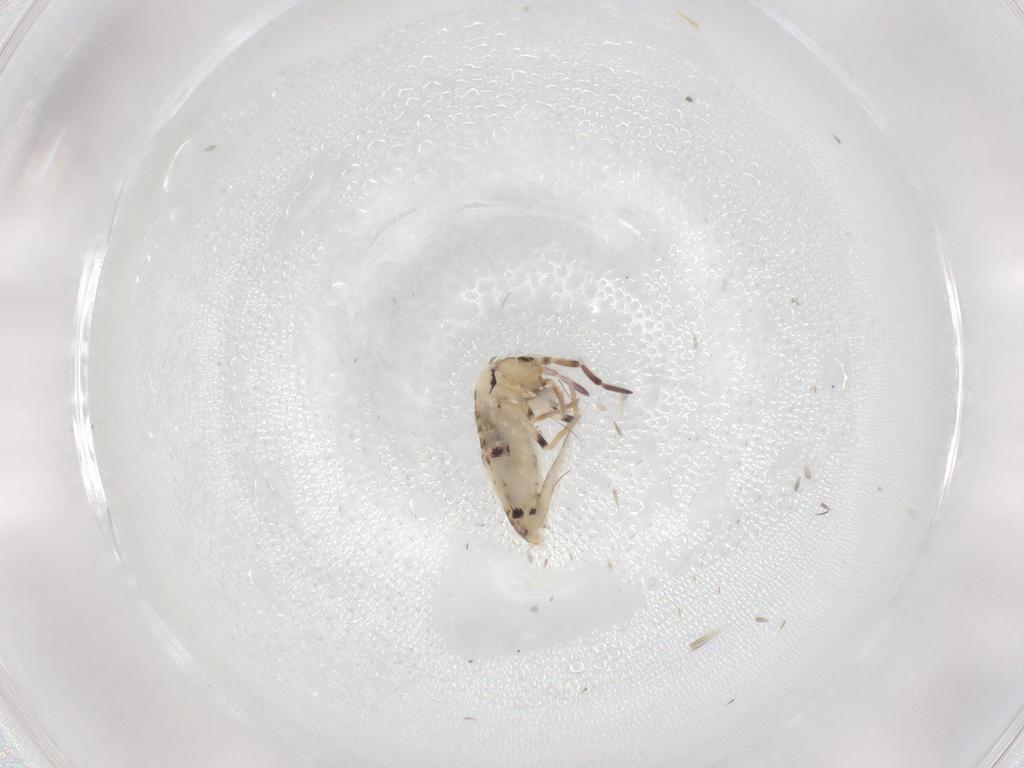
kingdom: Animalia
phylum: Arthropoda
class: Collembola
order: Entomobryomorpha
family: Entomobryidae
